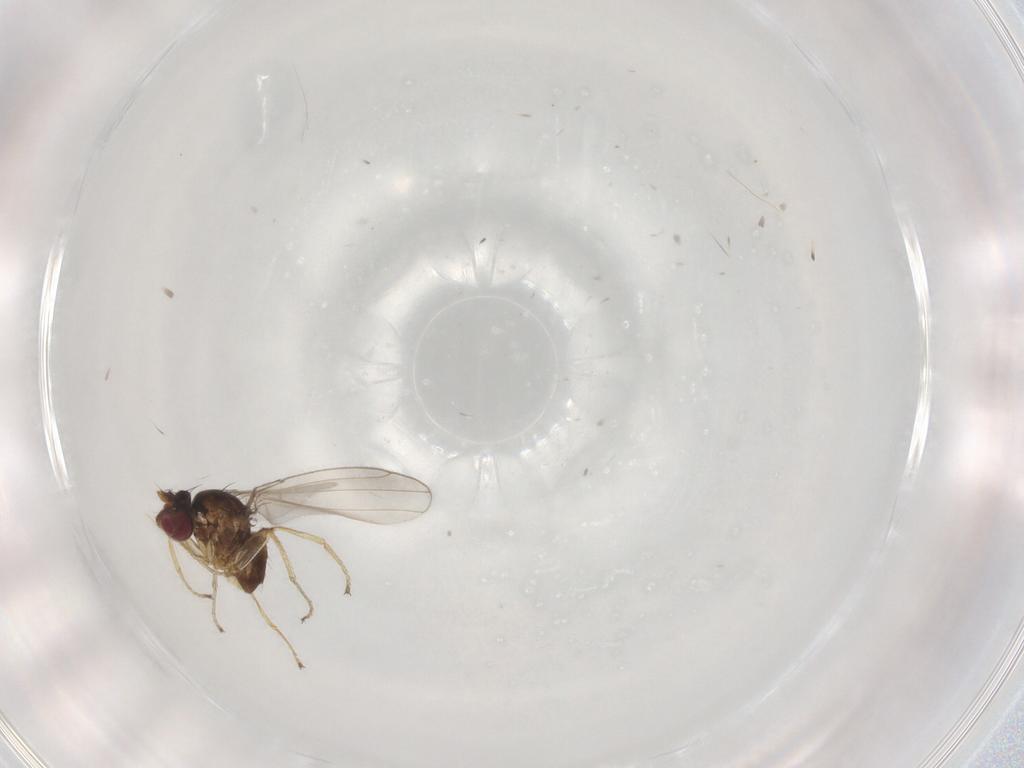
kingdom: Animalia
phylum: Arthropoda
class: Insecta
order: Diptera
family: Ephydridae
